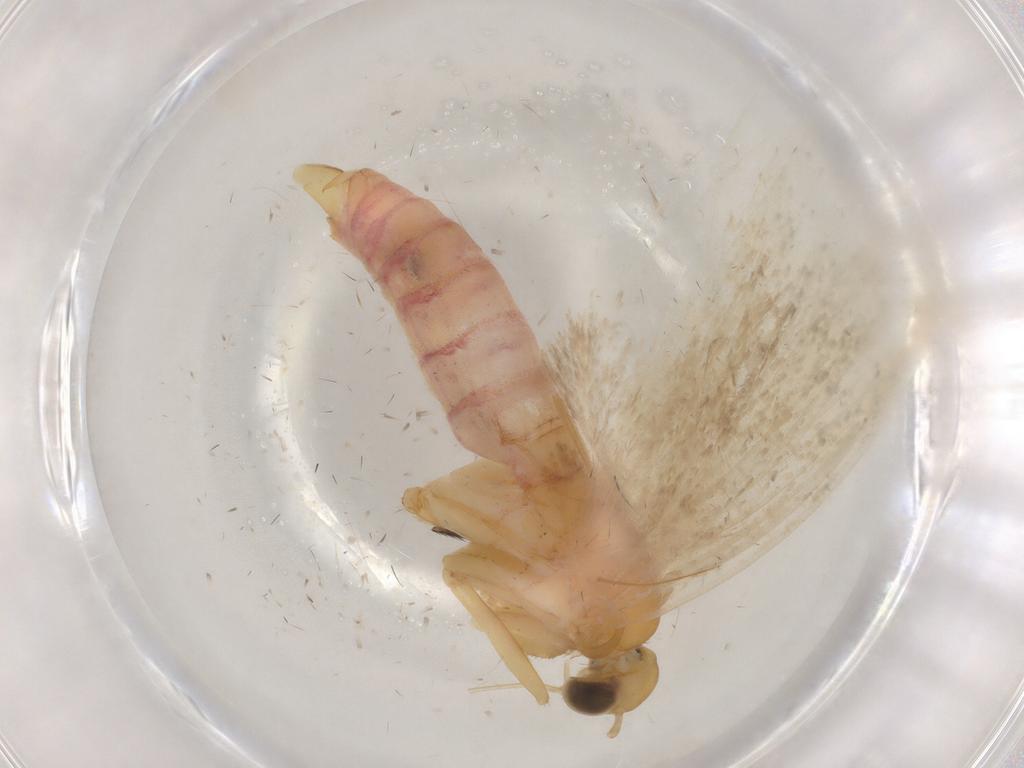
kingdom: Animalia
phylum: Arthropoda
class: Insecta
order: Lepidoptera
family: Autostichidae
